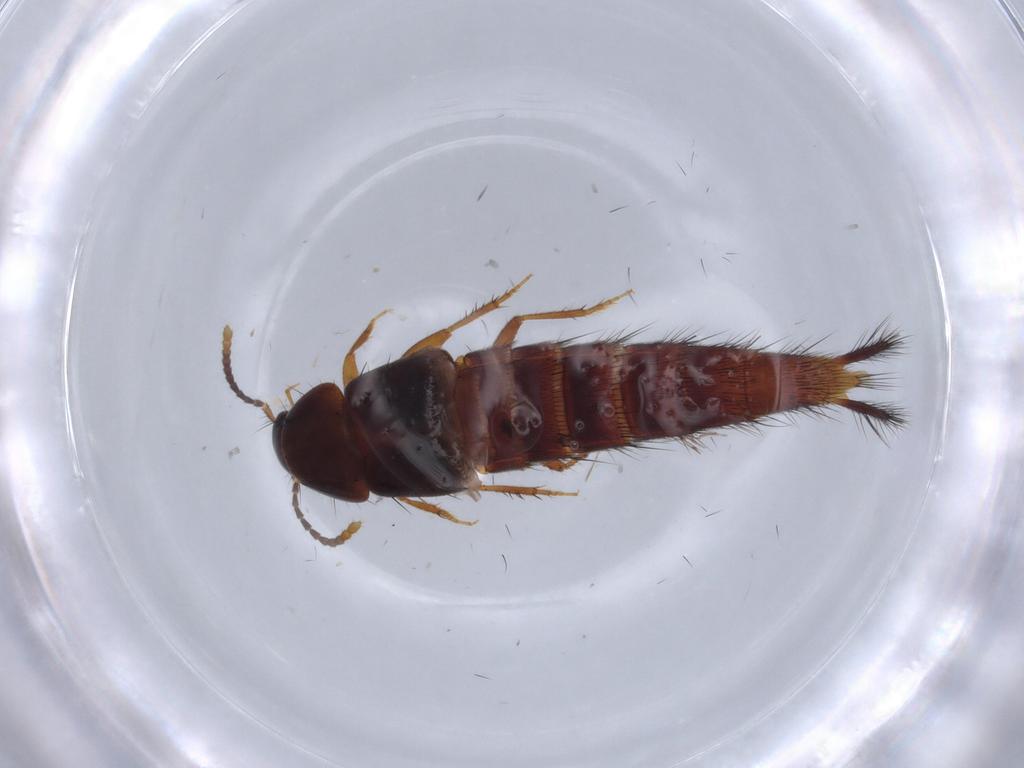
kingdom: Animalia
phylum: Arthropoda
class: Insecta
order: Coleoptera
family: Staphylinidae
